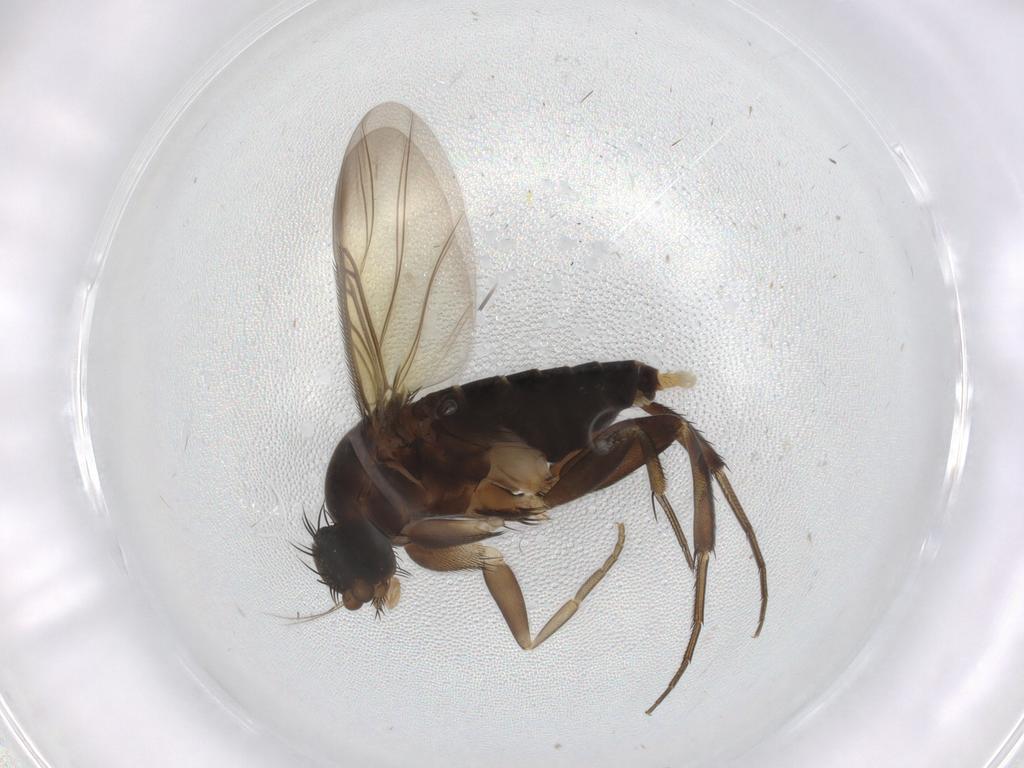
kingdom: Animalia
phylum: Arthropoda
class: Insecta
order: Diptera
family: Phoridae
